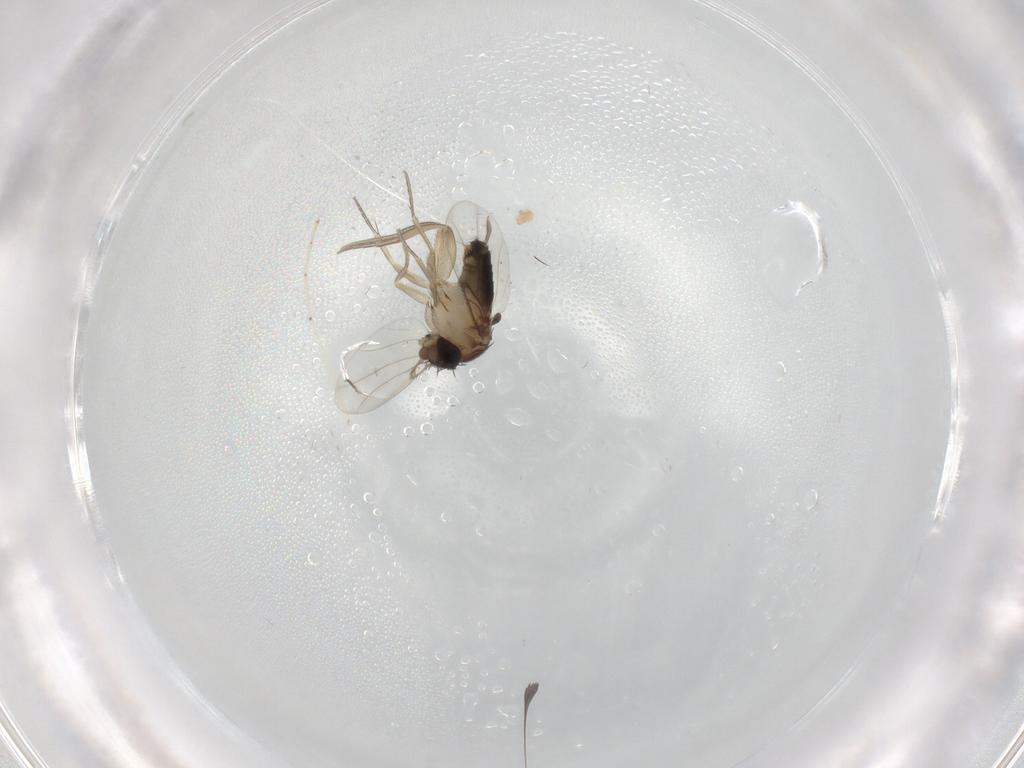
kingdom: Animalia
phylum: Arthropoda
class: Insecta
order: Diptera
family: Phoridae
